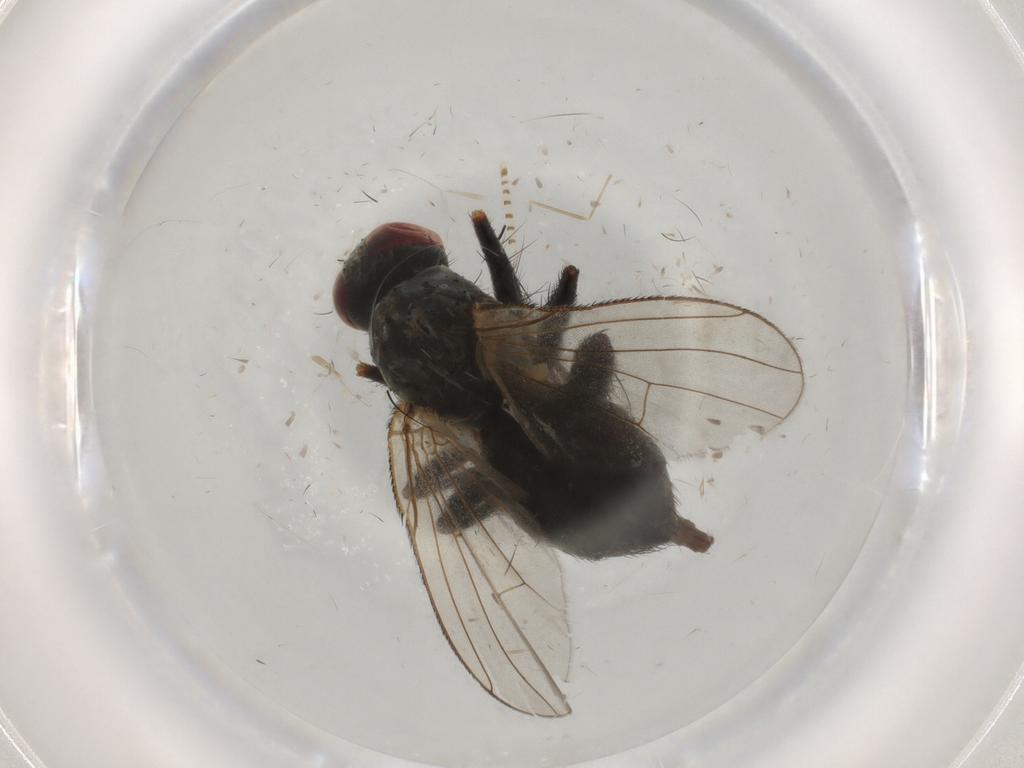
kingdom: Animalia
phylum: Arthropoda
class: Insecta
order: Diptera
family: Muscidae
